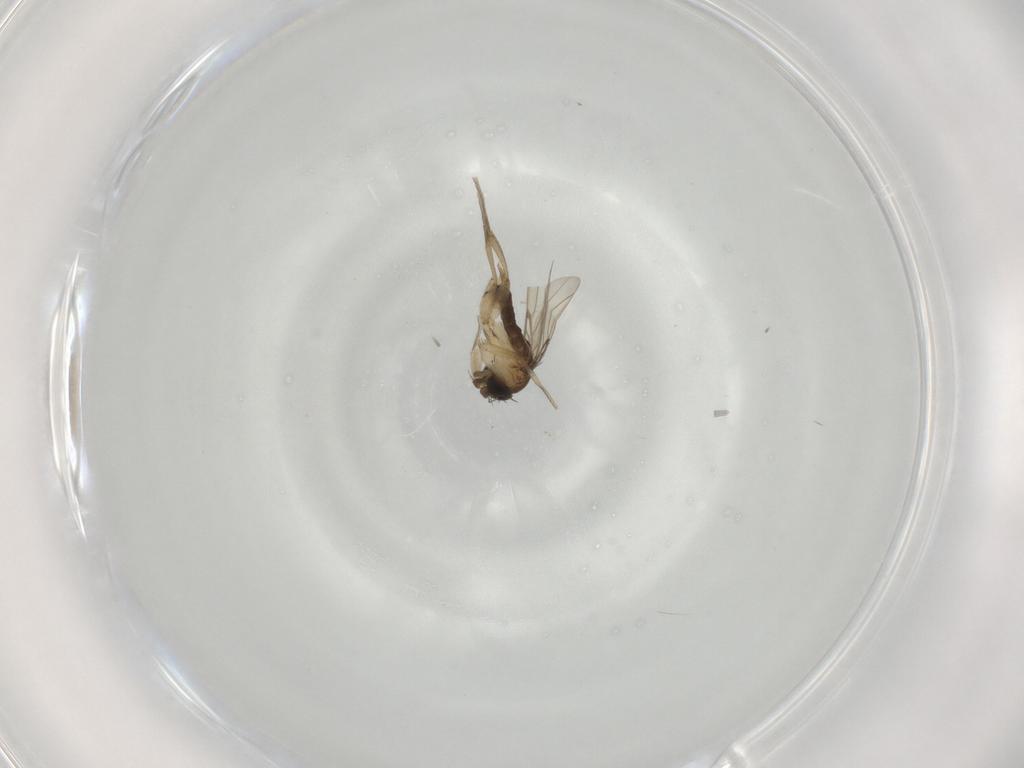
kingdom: Animalia
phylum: Arthropoda
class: Insecta
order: Diptera
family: Phoridae
